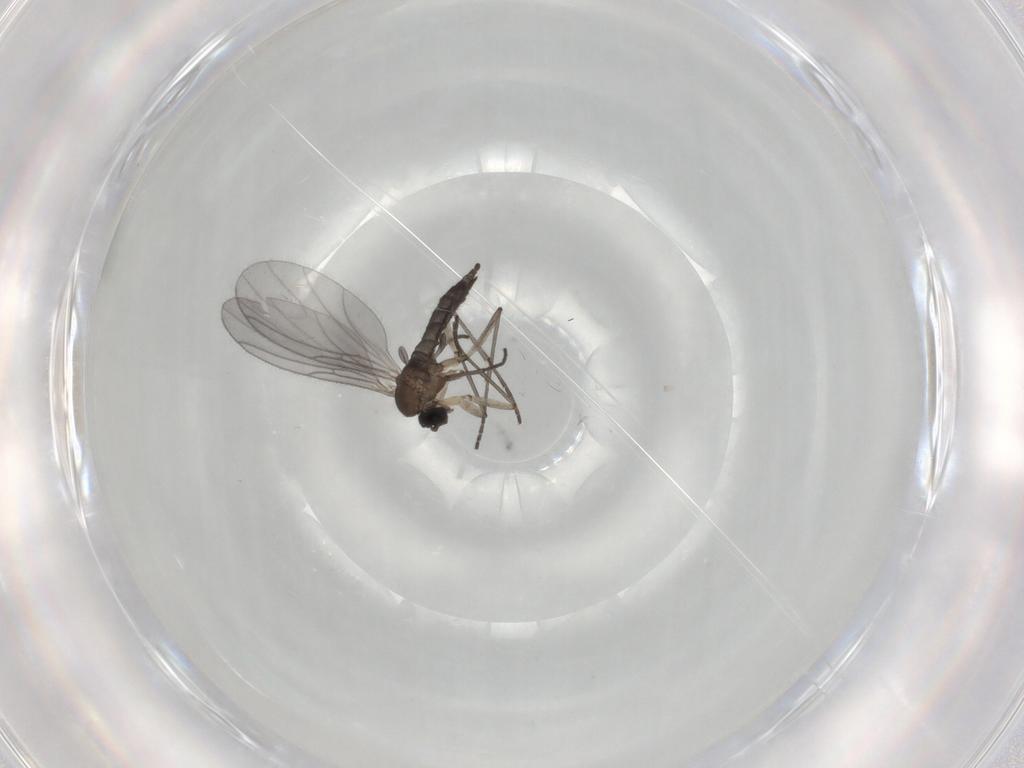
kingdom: Animalia
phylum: Arthropoda
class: Insecta
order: Diptera
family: Sciaridae
